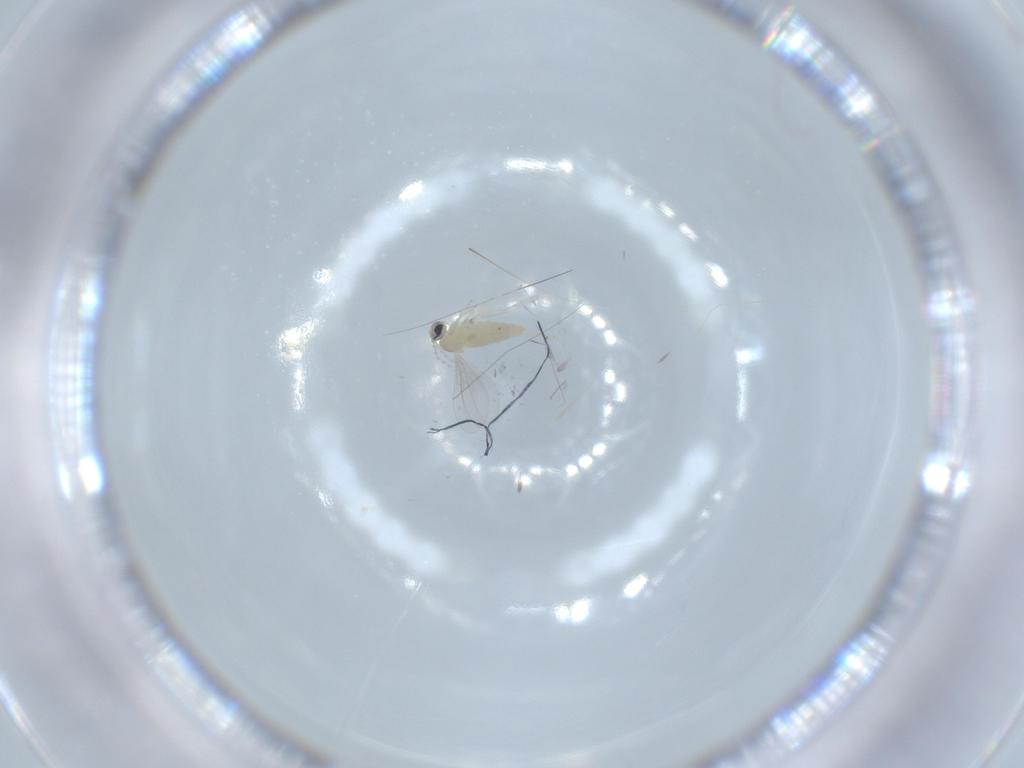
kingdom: Animalia
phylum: Arthropoda
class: Insecta
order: Diptera
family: Cecidomyiidae
